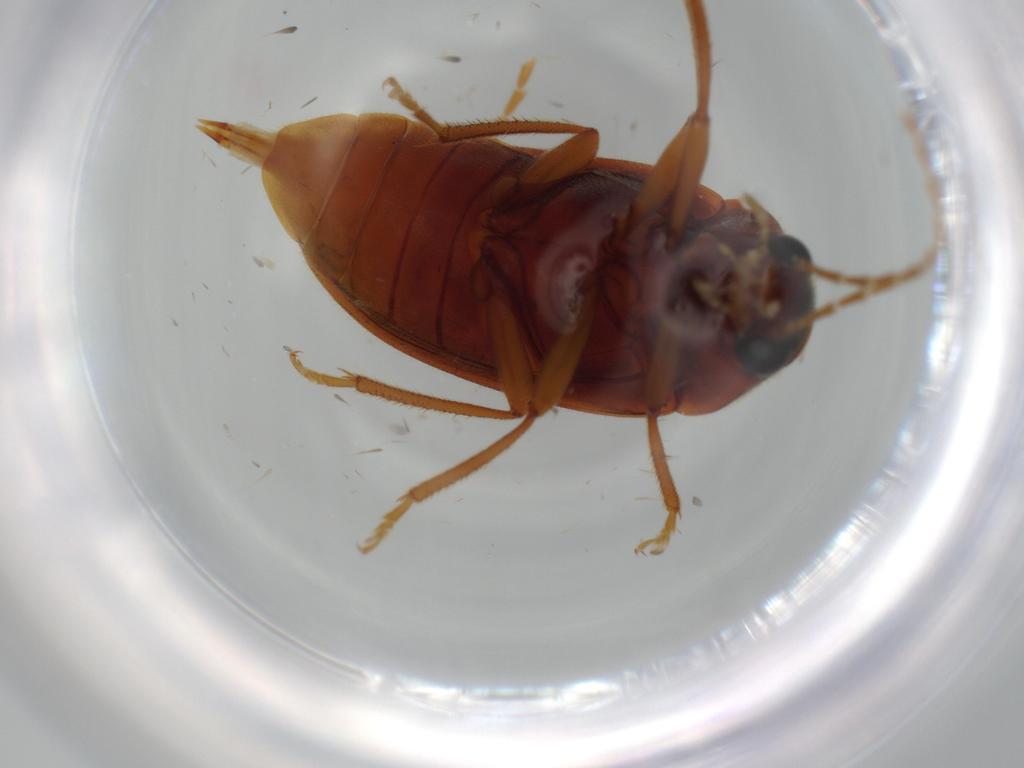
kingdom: Animalia
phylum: Arthropoda
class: Insecta
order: Coleoptera
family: Ptilodactylidae
